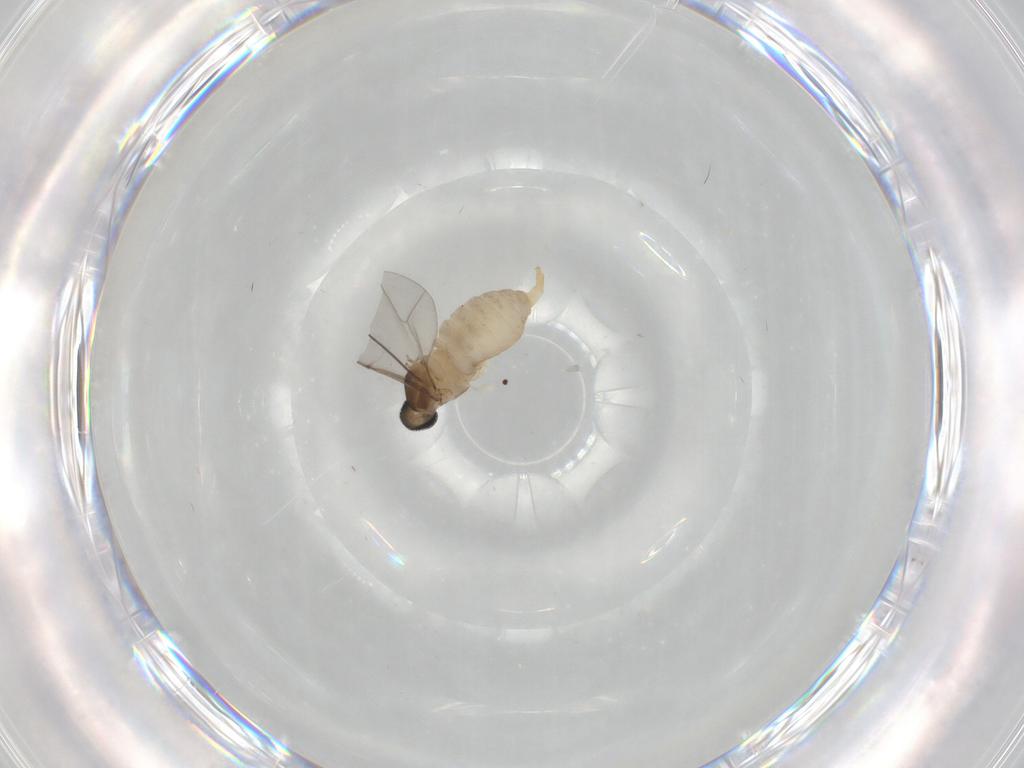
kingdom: Animalia
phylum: Arthropoda
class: Insecta
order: Diptera
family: Cecidomyiidae
